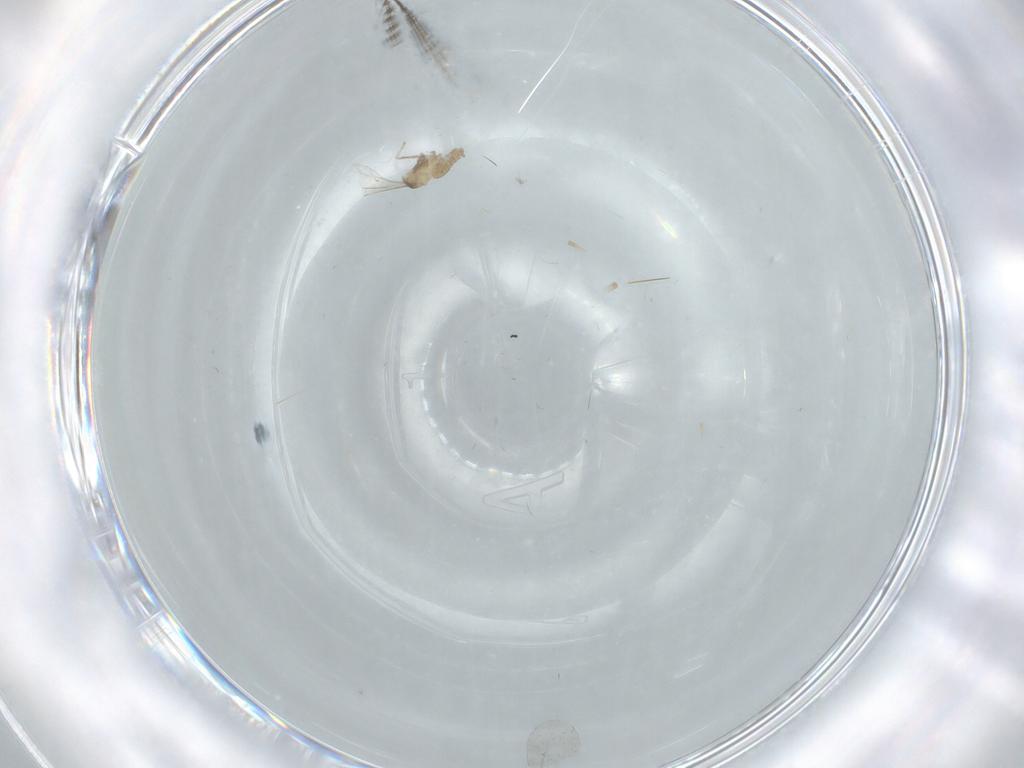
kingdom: Animalia
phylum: Arthropoda
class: Insecta
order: Diptera
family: Cecidomyiidae
